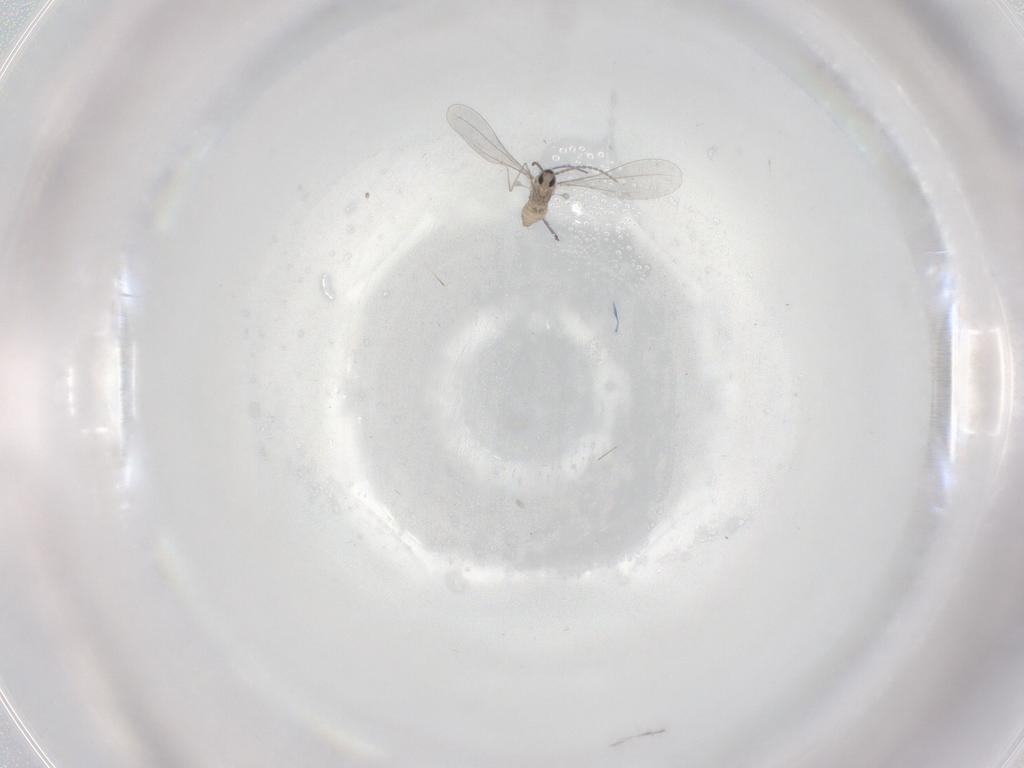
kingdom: Animalia
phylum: Arthropoda
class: Insecta
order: Diptera
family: Cecidomyiidae
